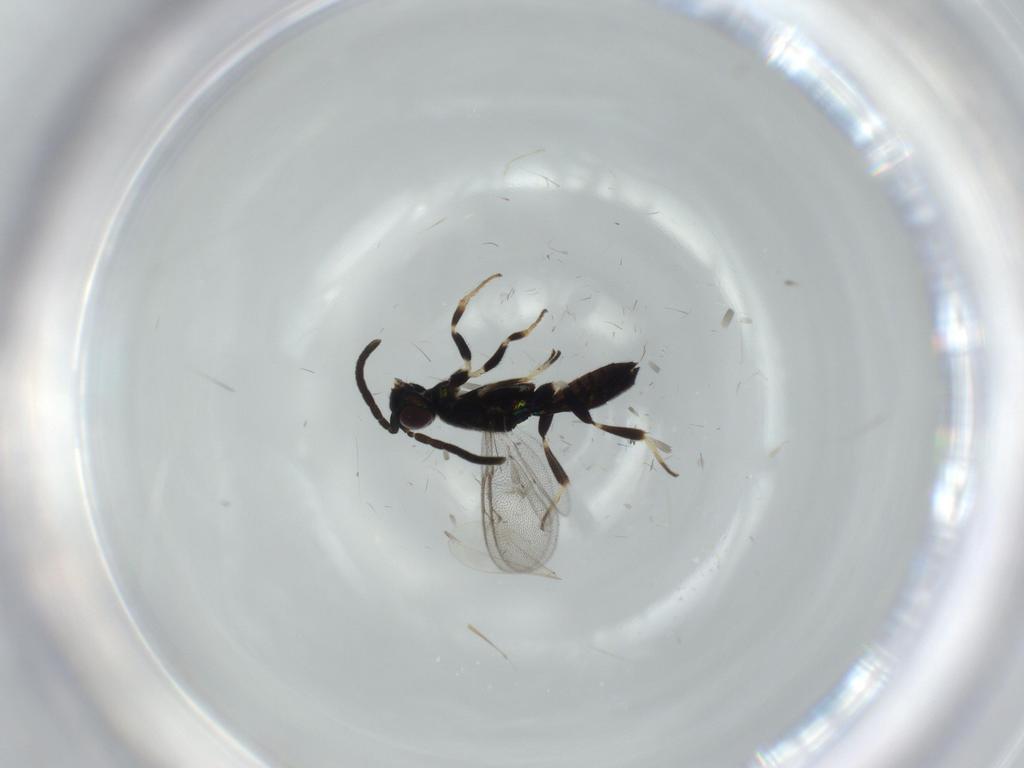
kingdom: Animalia
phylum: Arthropoda
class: Insecta
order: Hymenoptera
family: Eupelmidae
